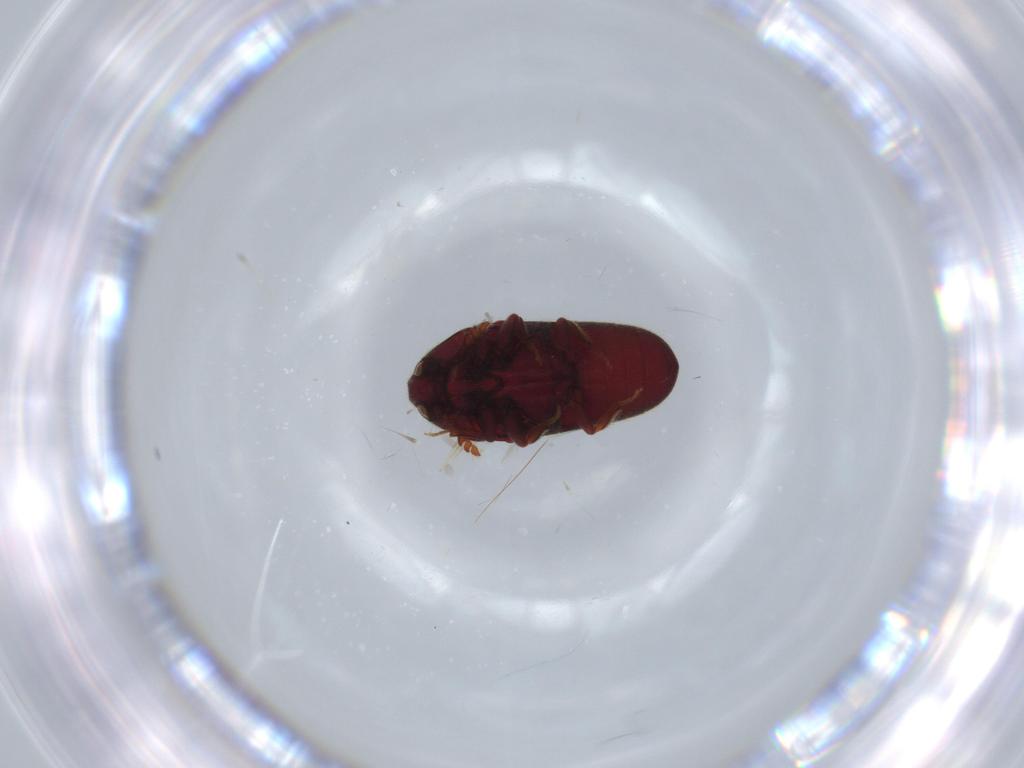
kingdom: Animalia
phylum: Arthropoda
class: Insecta
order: Coleoptera
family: Throscidae
